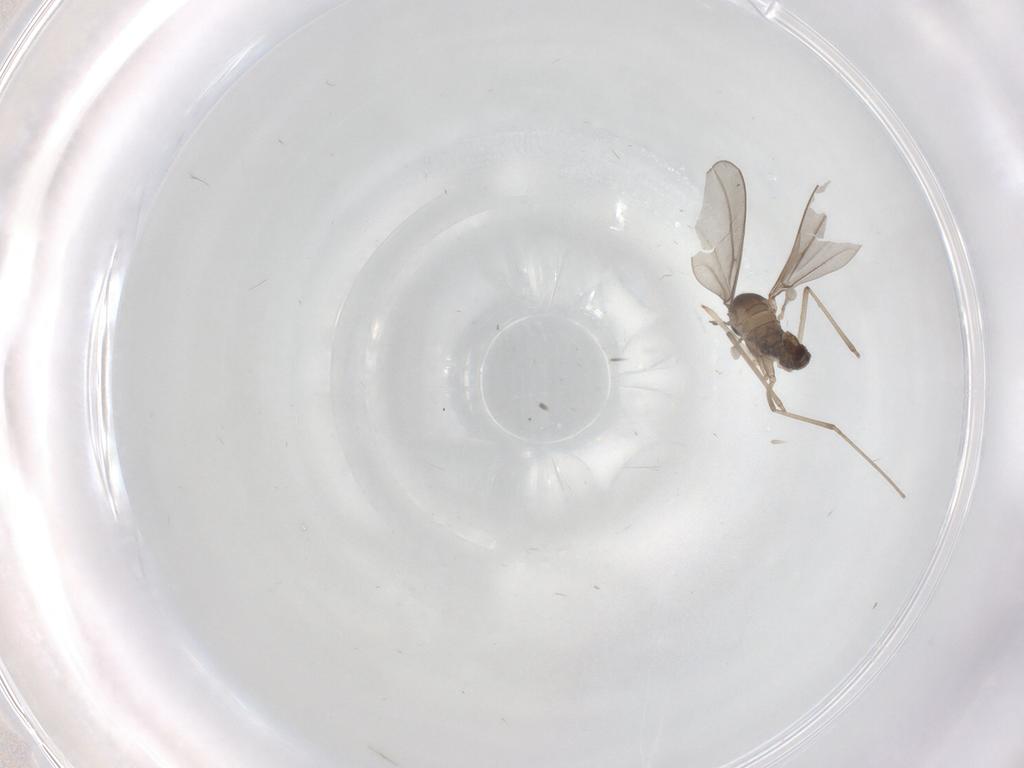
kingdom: Animalia
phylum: Arthropoda
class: Insecta
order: Diptera
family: Cecidomyiidae
